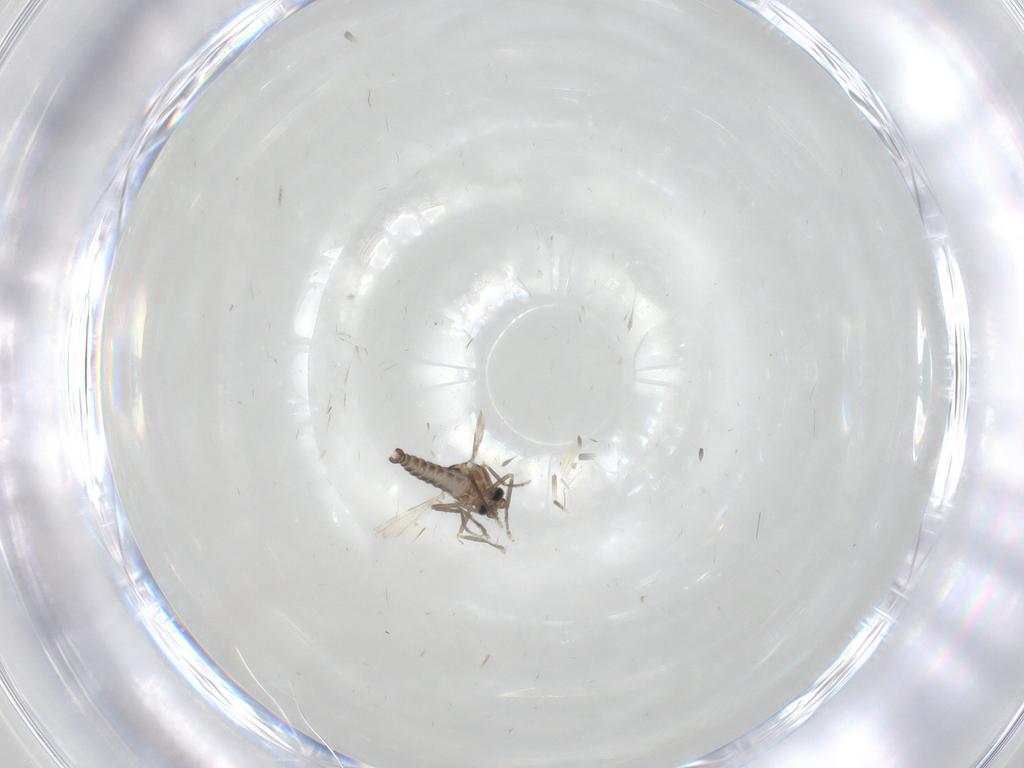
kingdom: Animalia
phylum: Arthropoda
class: Insecta
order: Diptera
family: Ceratopogonidae
